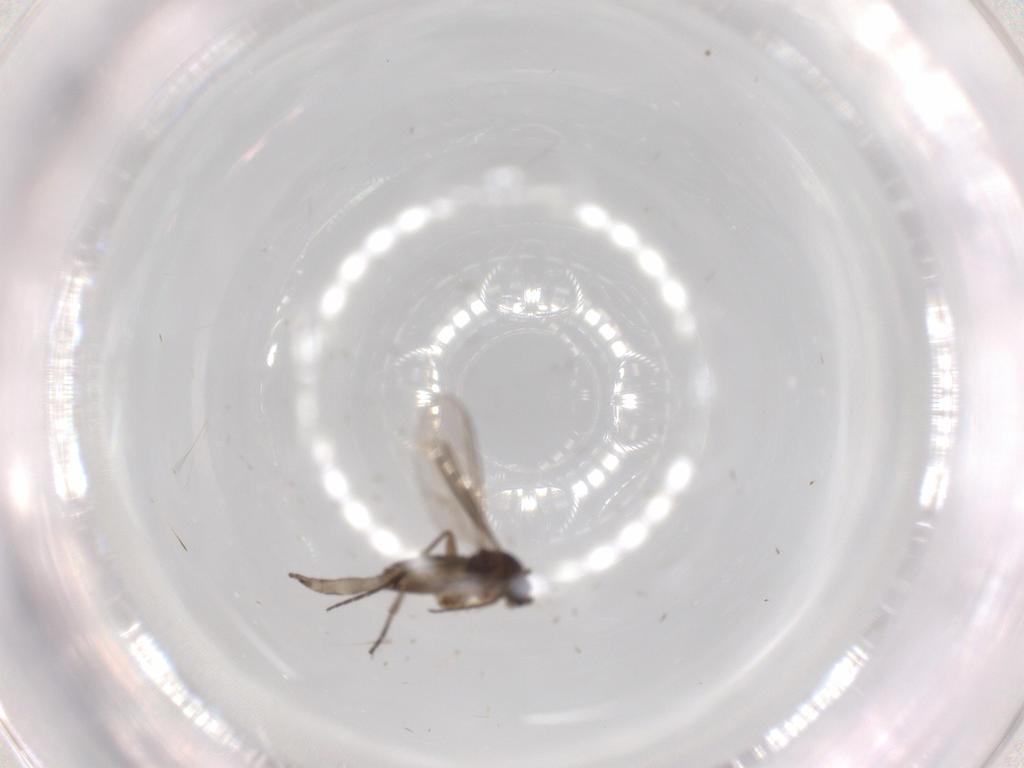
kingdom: Animalia
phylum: Arthropoda
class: Insecta
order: Diptera
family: Sciaridae
